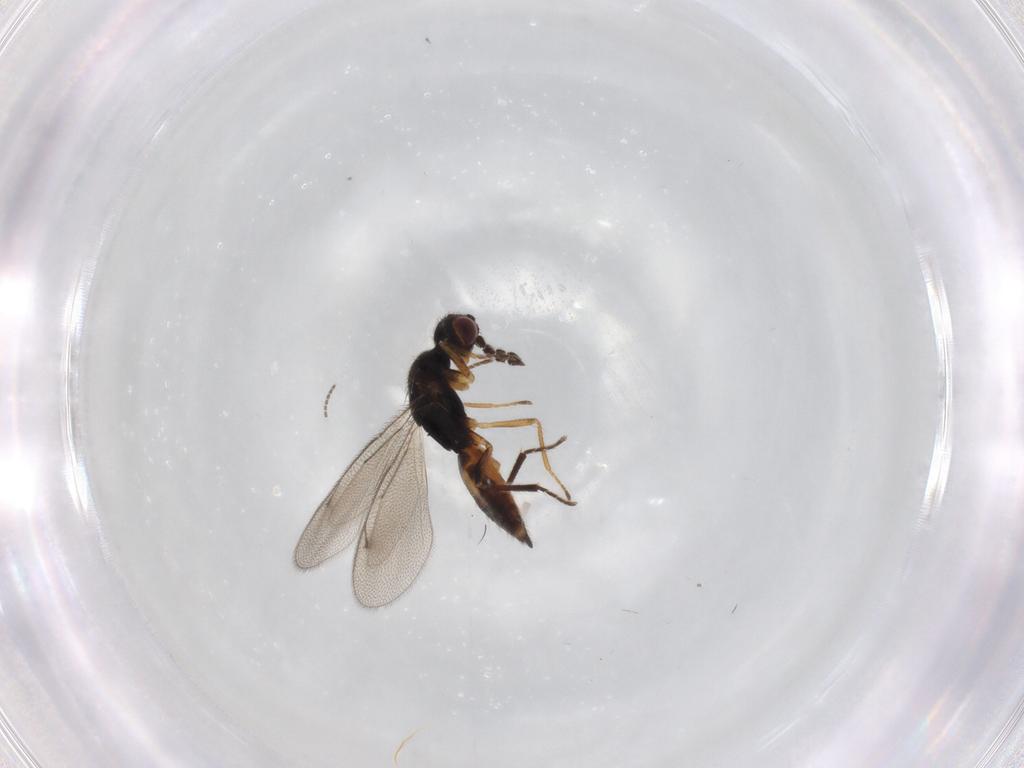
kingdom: Animalia
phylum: Arthropoda
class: Insecta
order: Hymenoptera
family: Eulophidae
